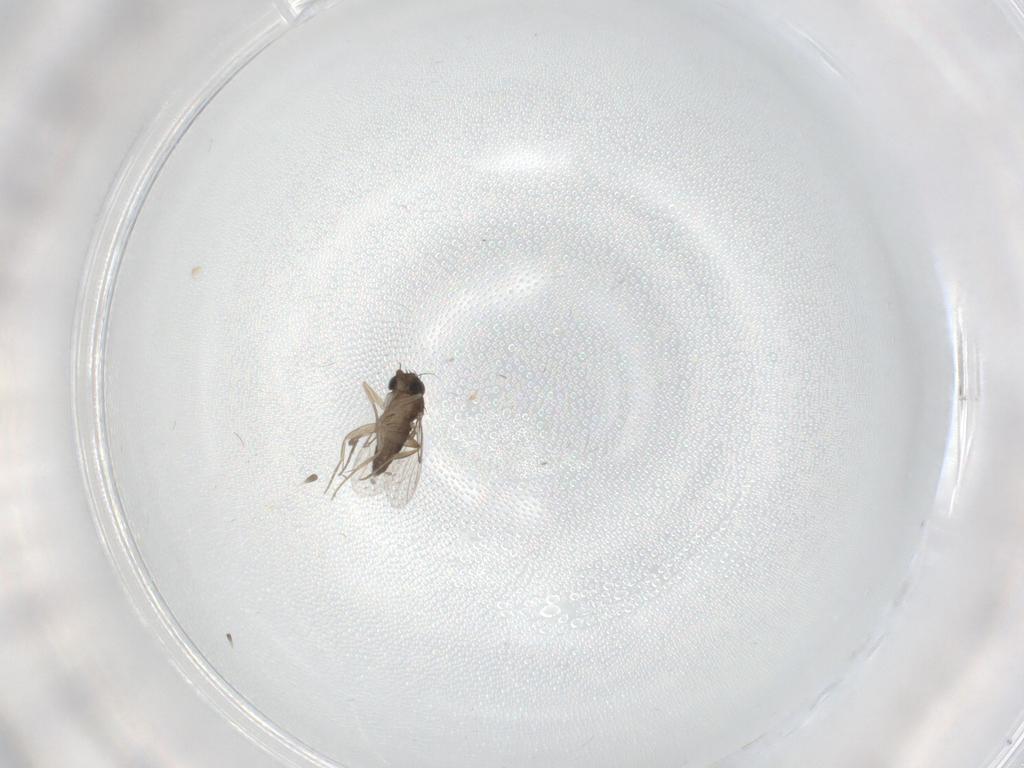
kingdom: Animalia
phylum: Arthropoda
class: Insecta
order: Diptera
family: Phoridae
